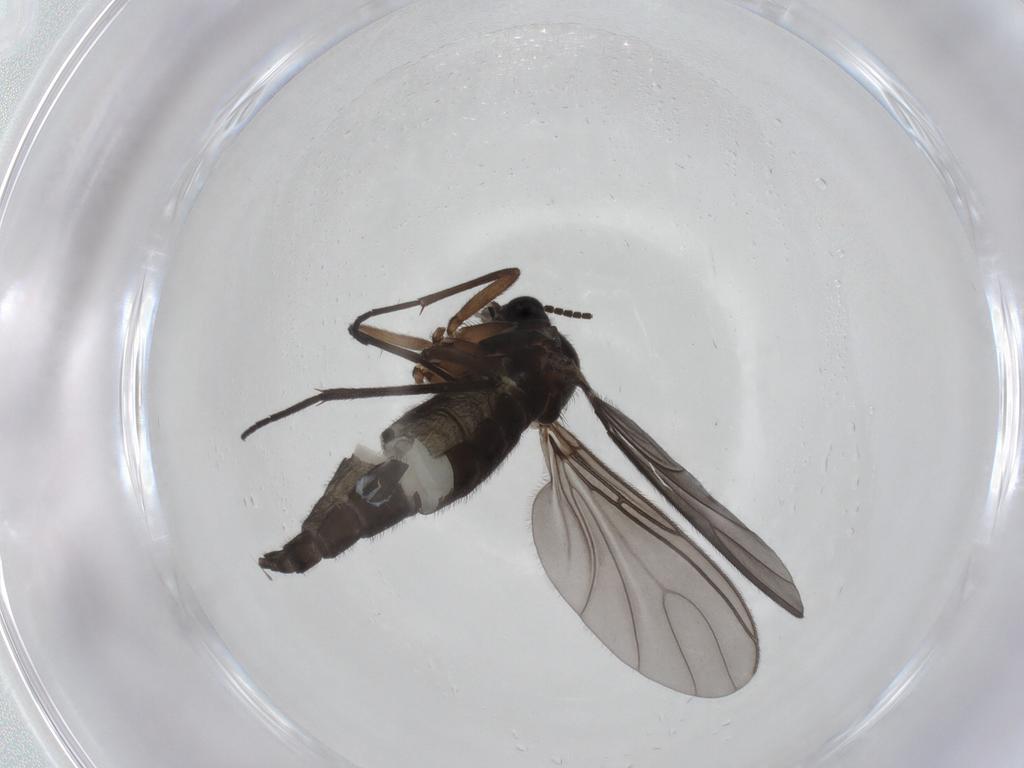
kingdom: Animalia
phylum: Arthropoda
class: Insecta
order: Diptera
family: Sciaridae
